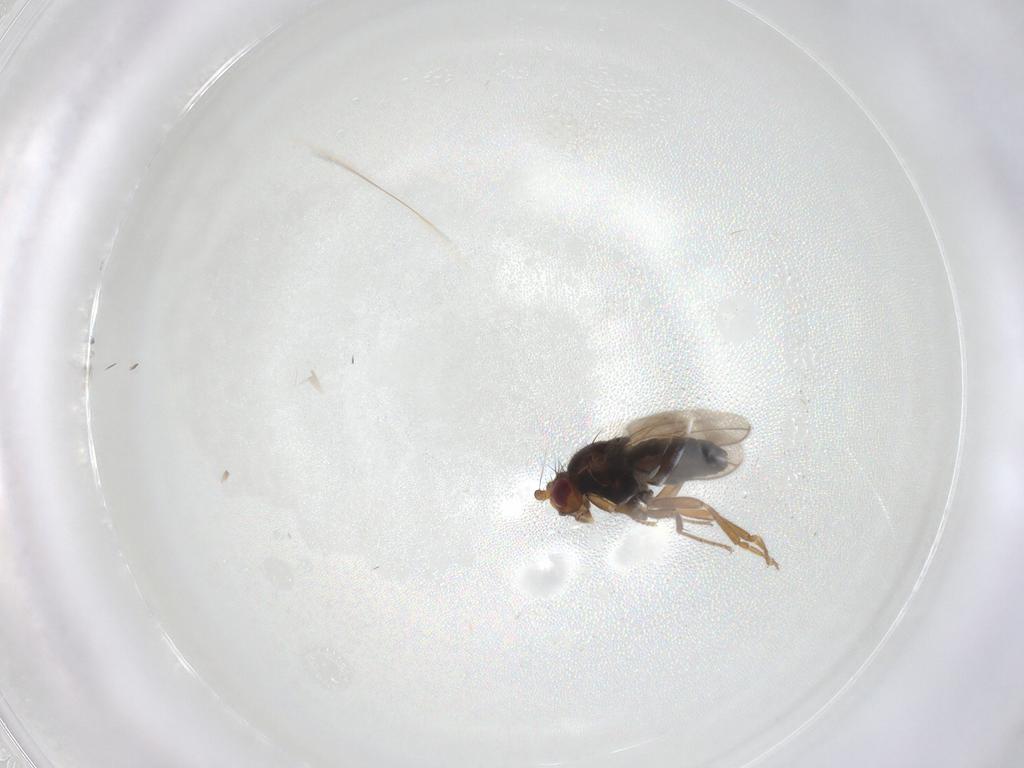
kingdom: Animalia
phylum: Arthropoda
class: Insecta
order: Diptera
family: Sphaeroceridae
